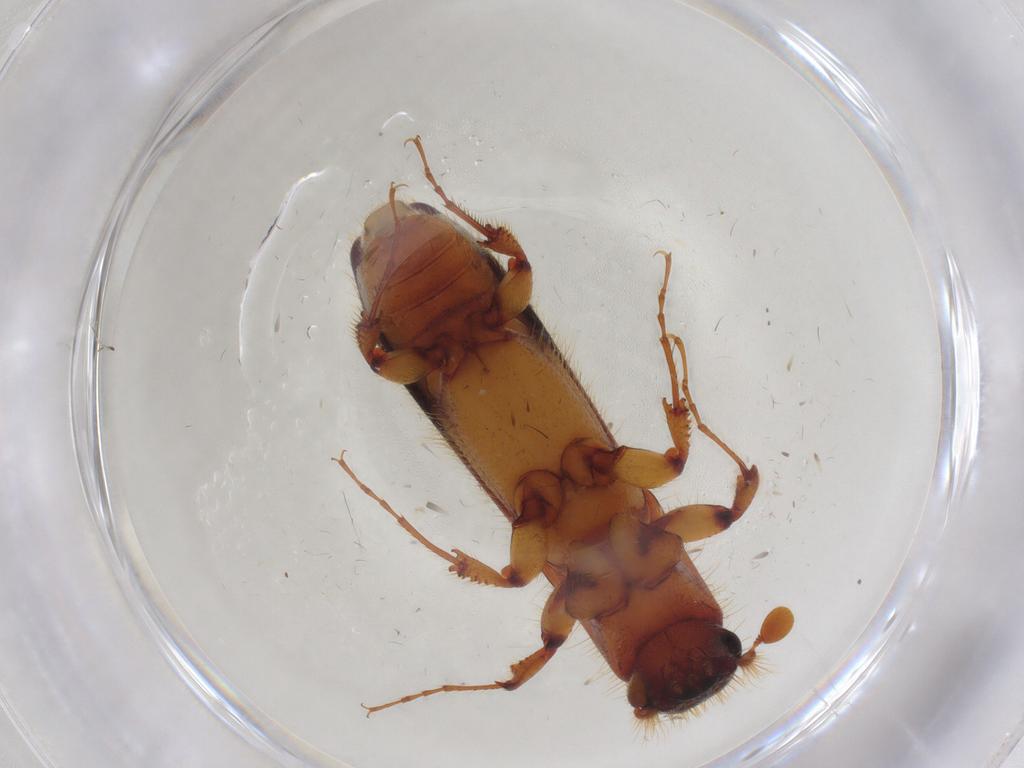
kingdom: Animalia
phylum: Arthropoda
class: Insecta
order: Coleoptera
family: Curculionidae
